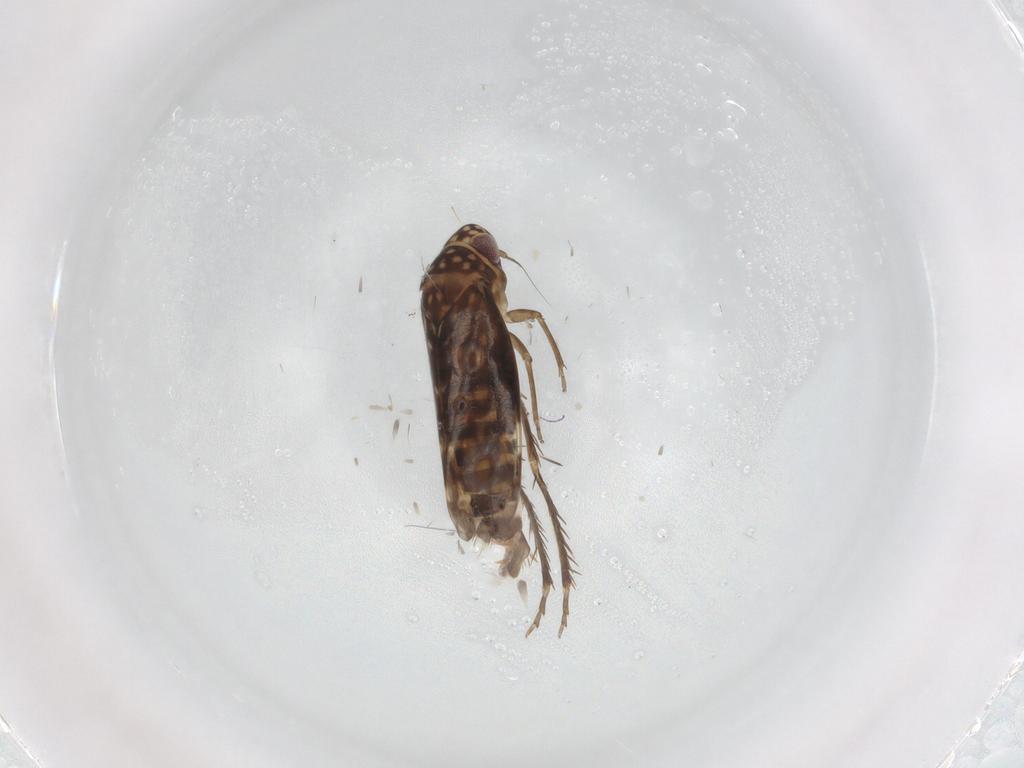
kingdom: Animalia
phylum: Arthropoda
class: Insecta
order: Hemiptera
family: Cicadellidae
